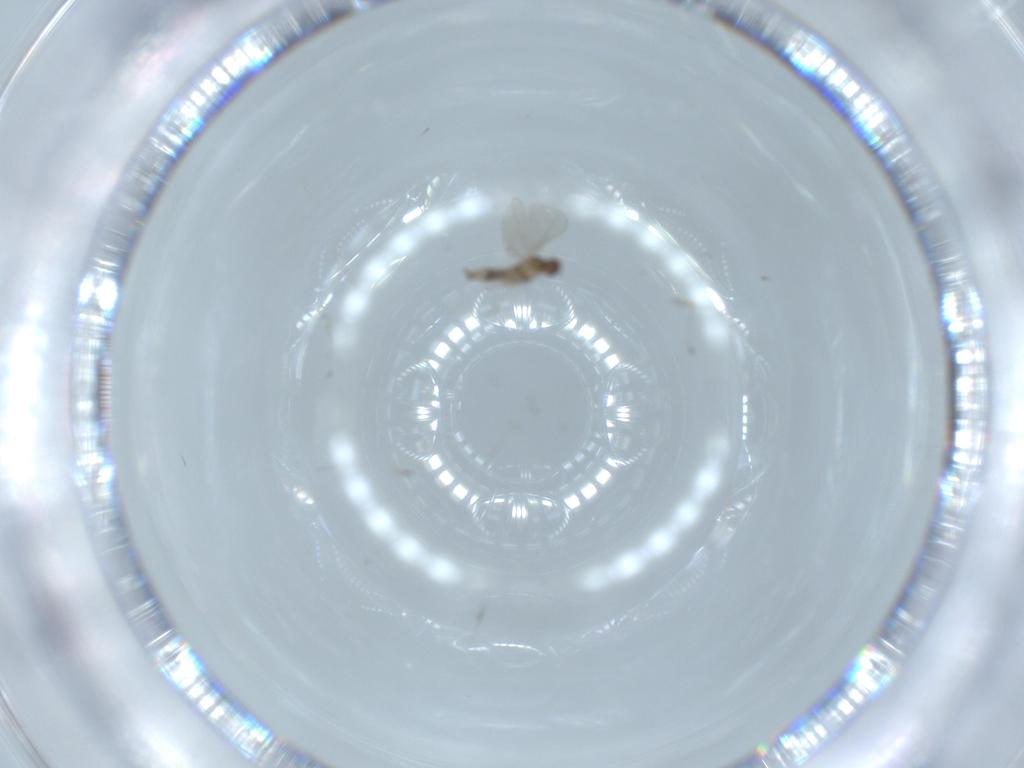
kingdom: Animalia
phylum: Arthropoda
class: Insecta
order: Diptera
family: Cecidomyiidae
